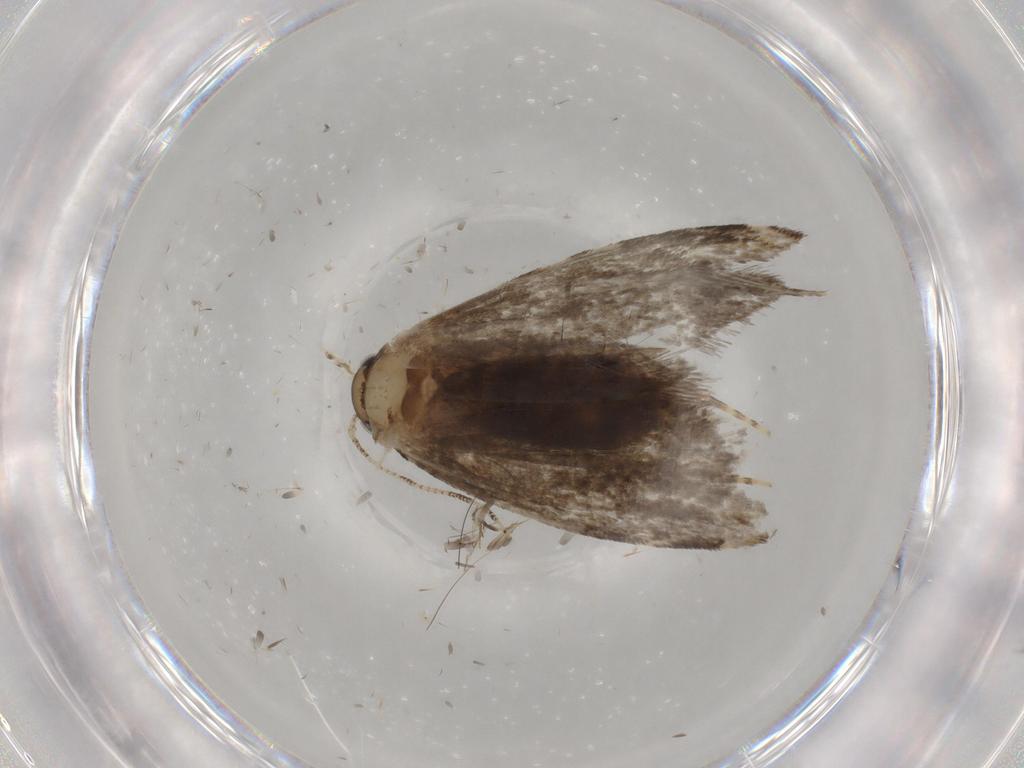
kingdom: Animalia
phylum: Arthropoda
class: Insecta
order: Lepidoptera
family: Tineidae
